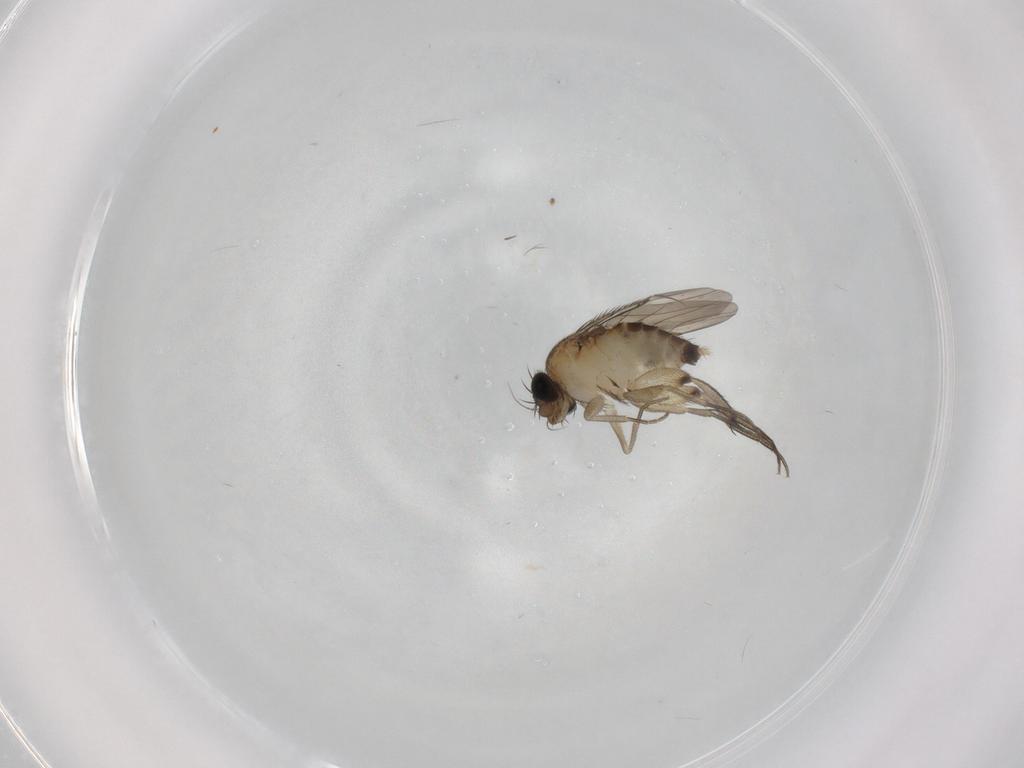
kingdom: Animalia
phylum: Arthropoda
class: Insecta
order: Diptera
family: Phoridae
